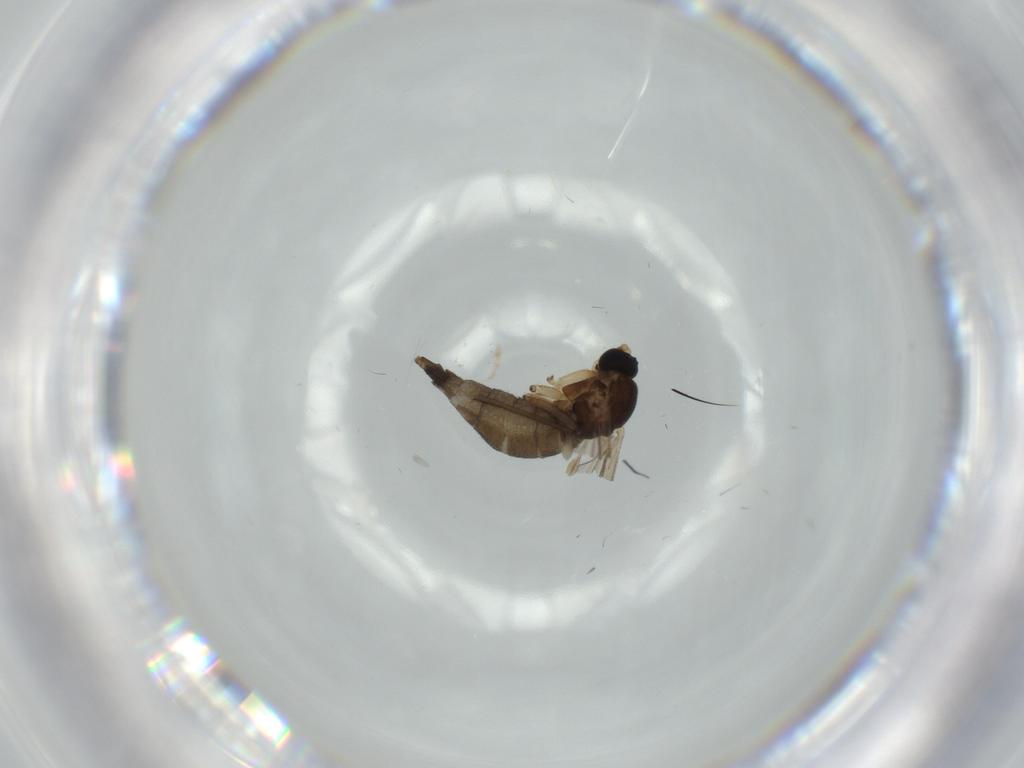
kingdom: Animalia
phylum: Arthropoda
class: Insecta
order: Diptera
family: Sciaridae
